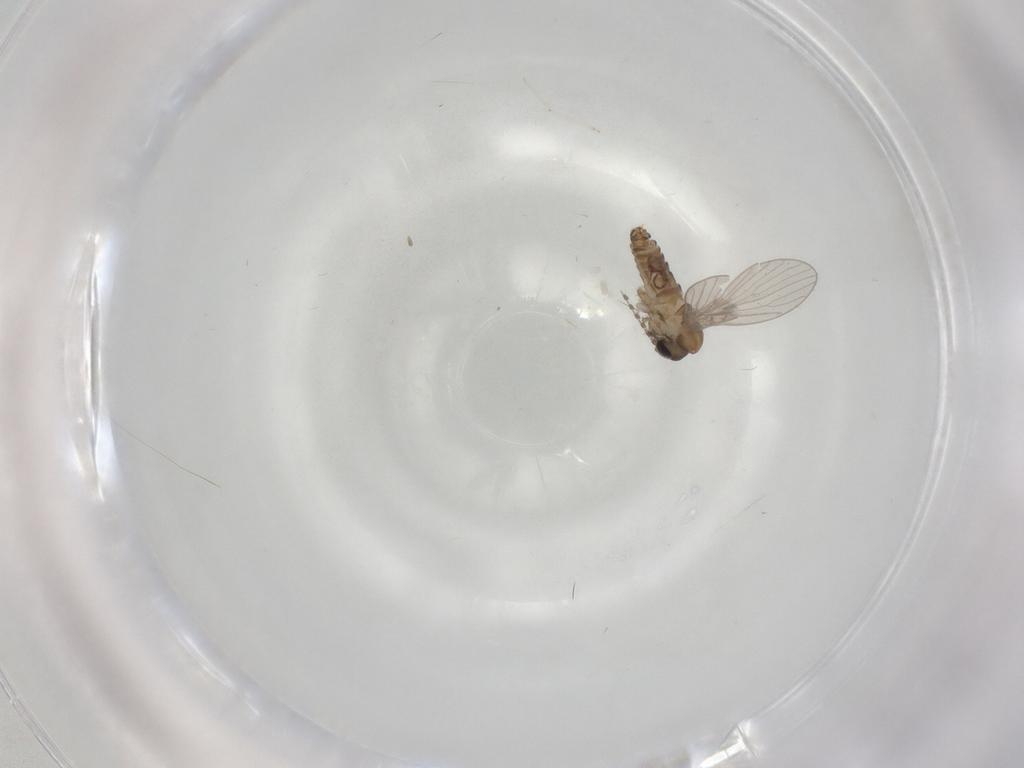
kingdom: Animalia
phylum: Arthropoda
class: Insecta
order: Diptera
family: Psychodidae
